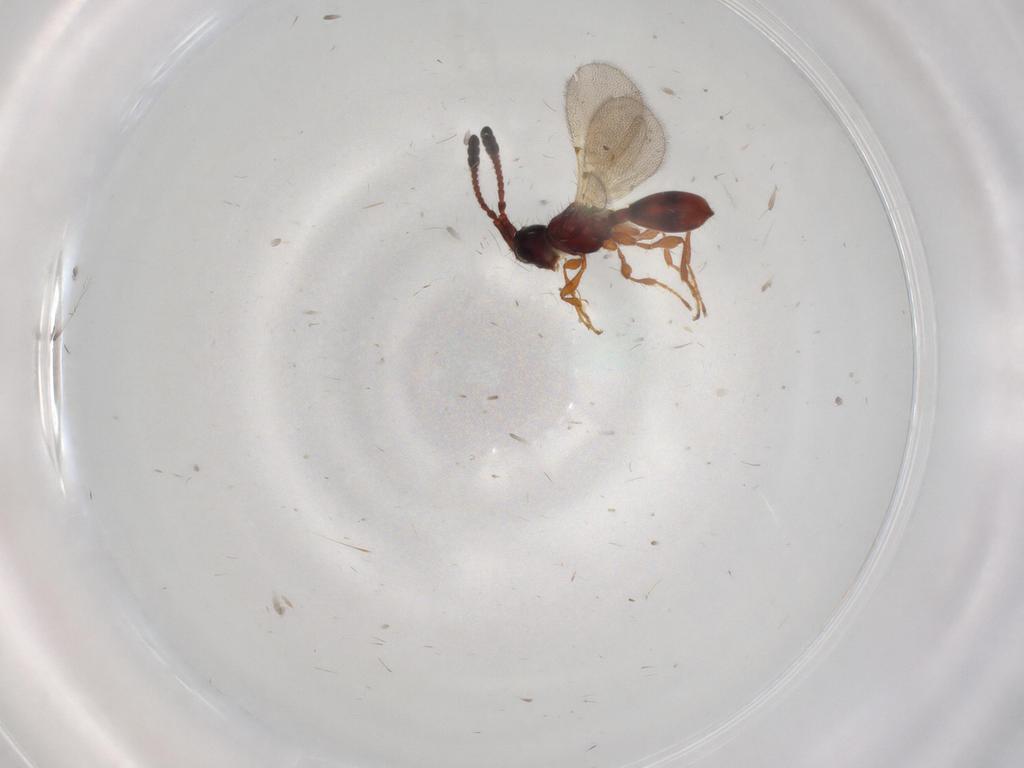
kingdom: Animalia
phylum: Arthropoda
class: Insecta
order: Hymenoptera
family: Diapriidae
